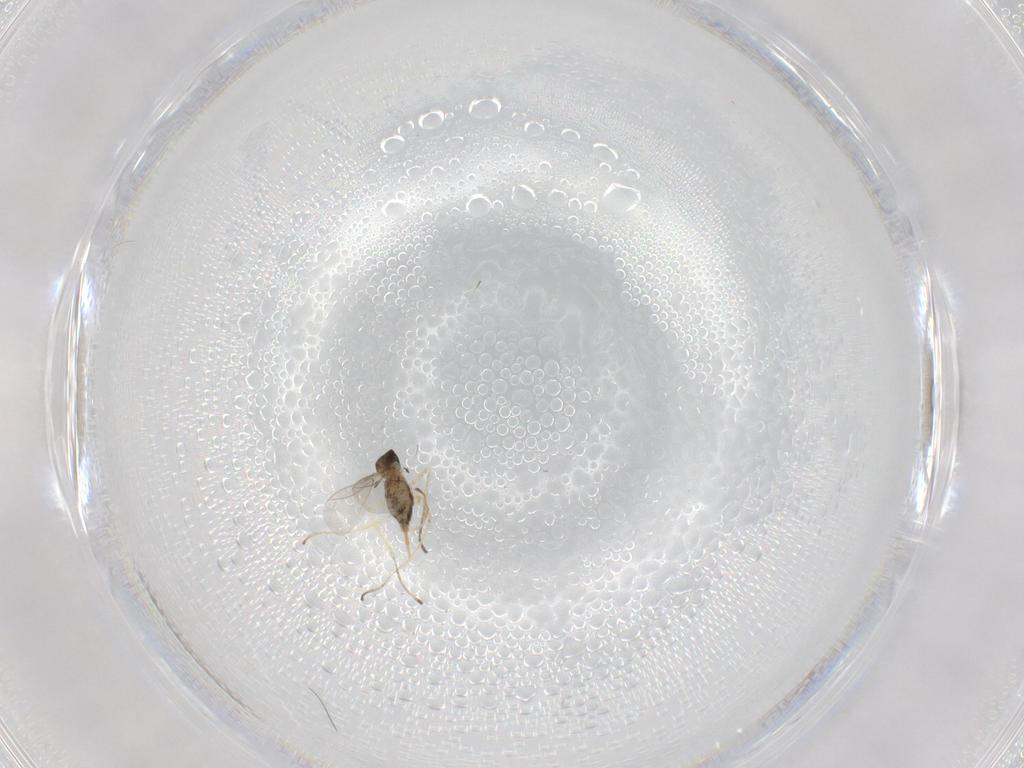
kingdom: Animalia
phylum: Arthropoda
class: Insecta
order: Diptera
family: Cecidomyiidae
